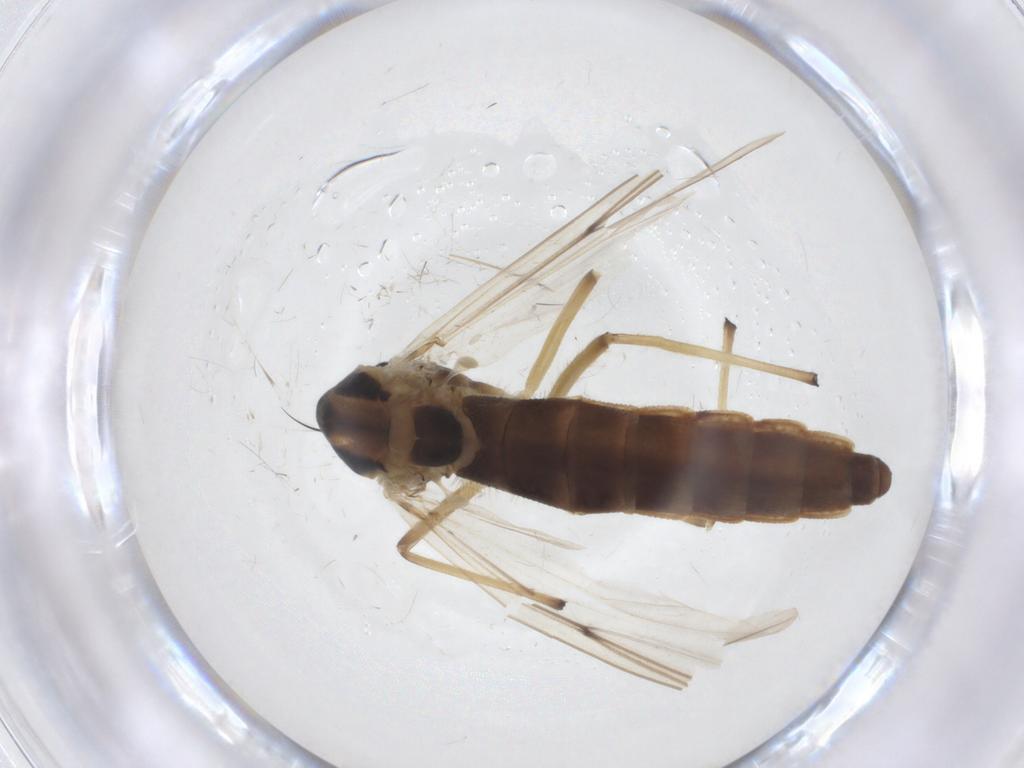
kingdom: Animalia
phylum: Arthropoda
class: Insecta
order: Diptera
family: Chironomidae
